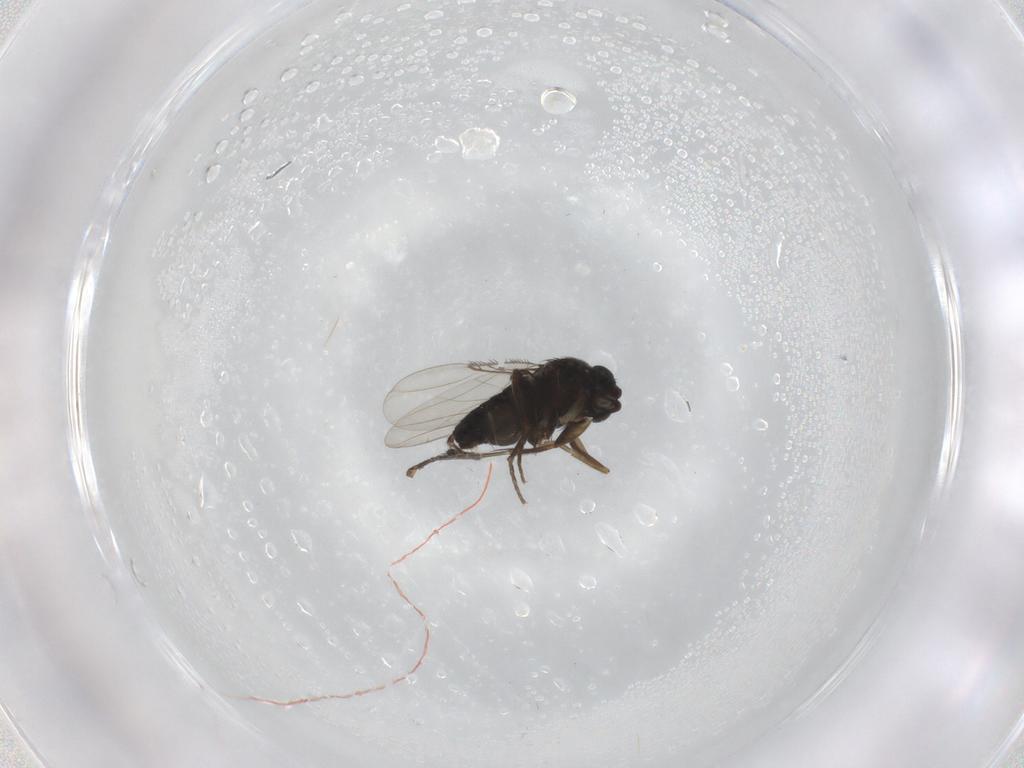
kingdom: Animalia
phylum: Arthropoda
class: Insecta
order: Diptera
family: Phoridae
